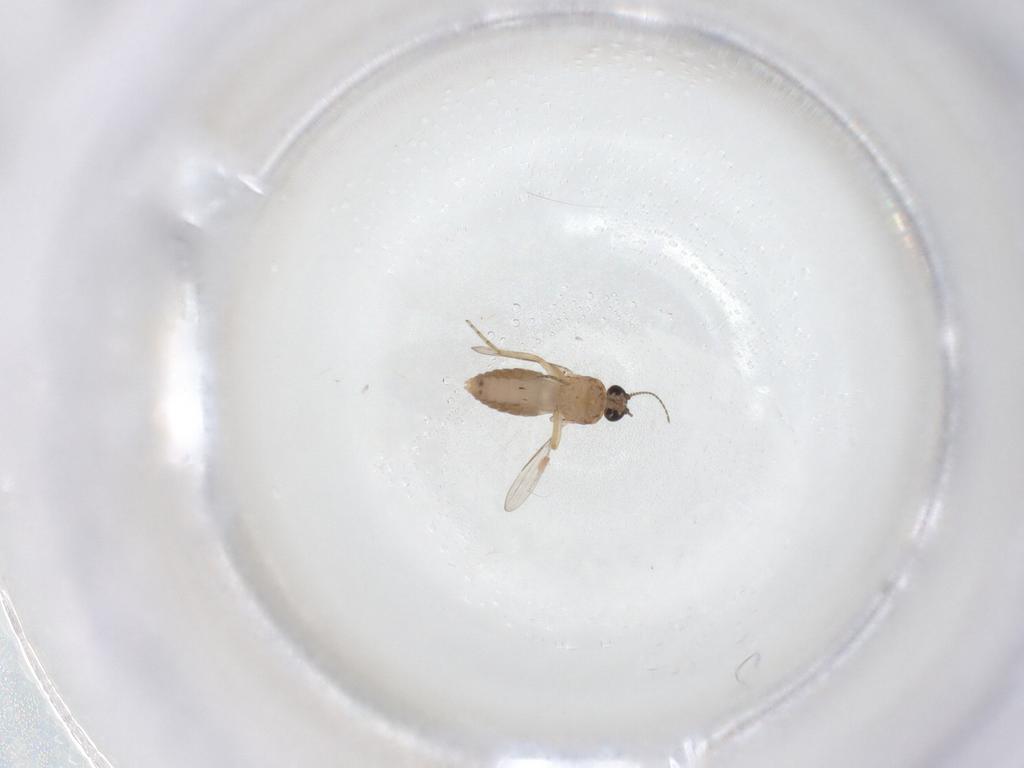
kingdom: Animalia
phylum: Arthropoda
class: Insecta
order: Diptera
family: Ceratopogonidae
